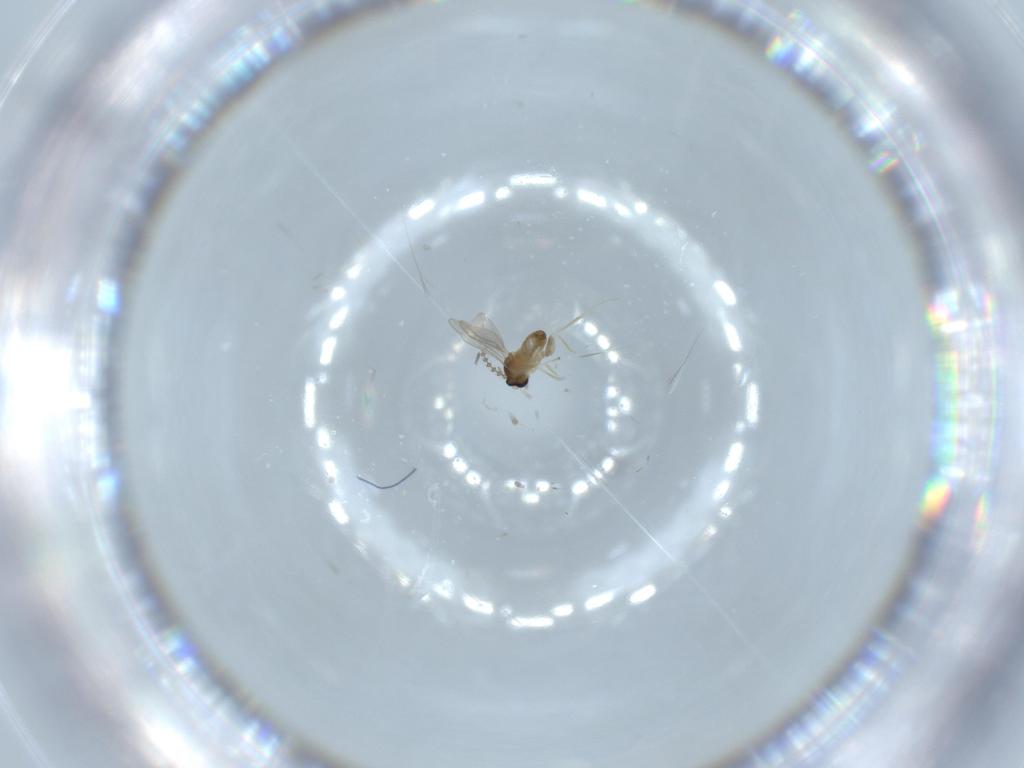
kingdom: Animalia
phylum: Arthropoda
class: Insecta
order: Diptera
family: Cecidomyiidae
